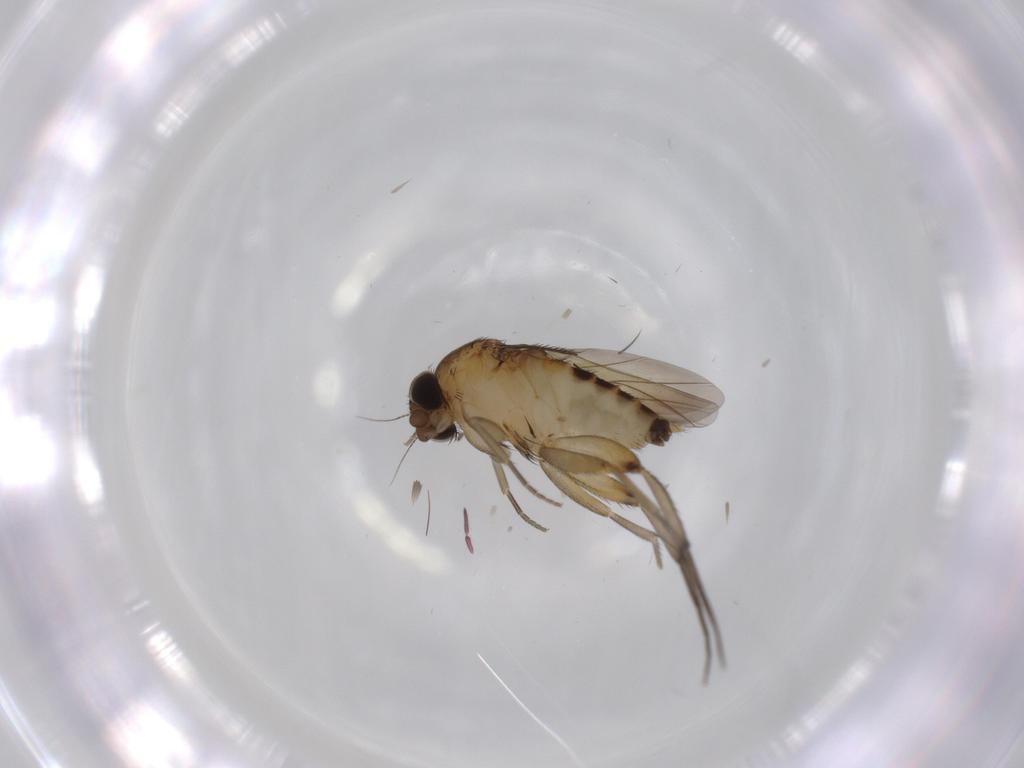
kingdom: Animalia
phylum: Arthropoda
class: Insecta
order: Diptera
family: Phoridae
